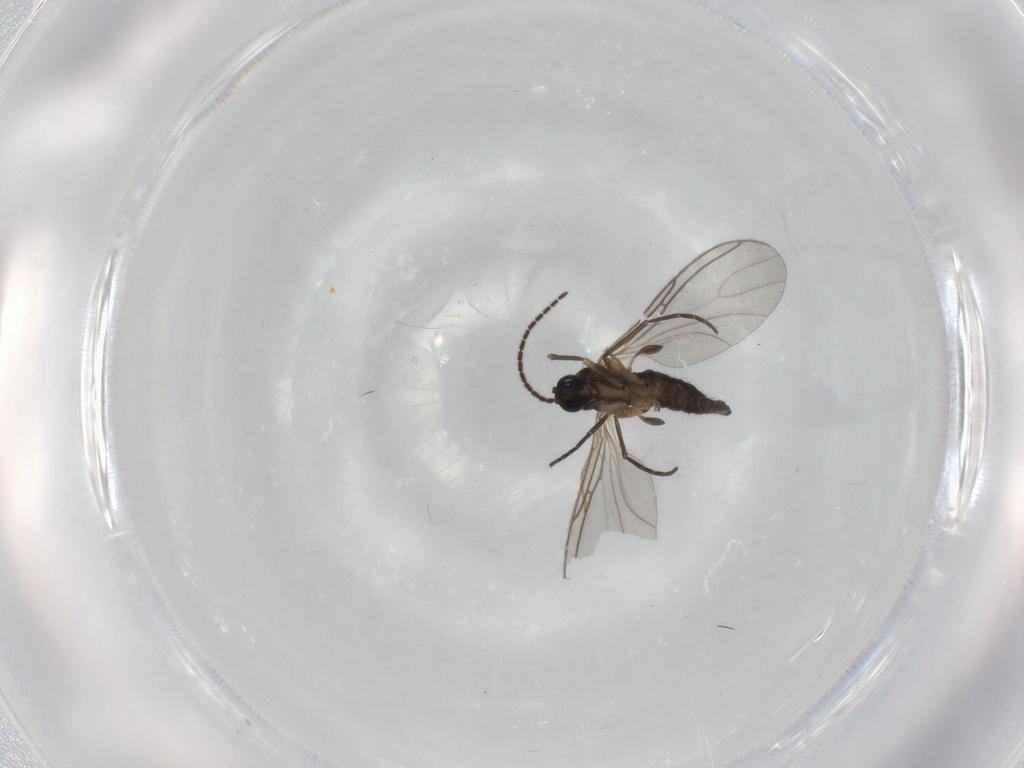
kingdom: Animalia
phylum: Arthropoda
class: Insecta
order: Diptera
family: Sciaridae
